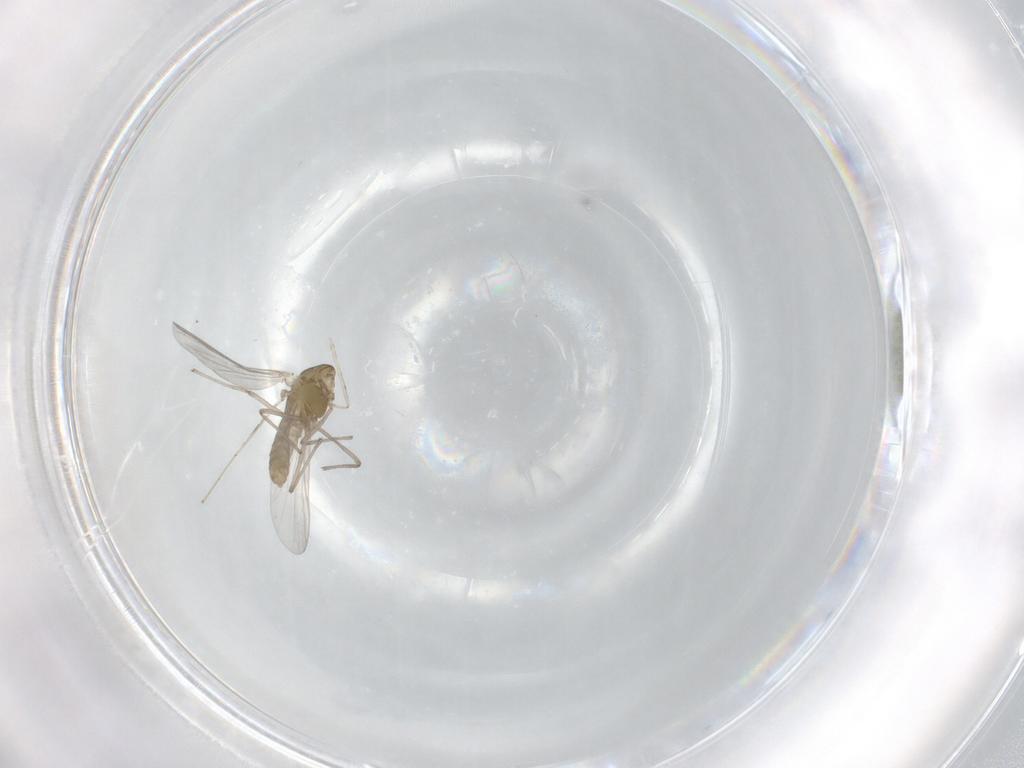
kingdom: Animalia
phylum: Arthropoda
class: Insecta
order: Diptera
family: Chironomidae
